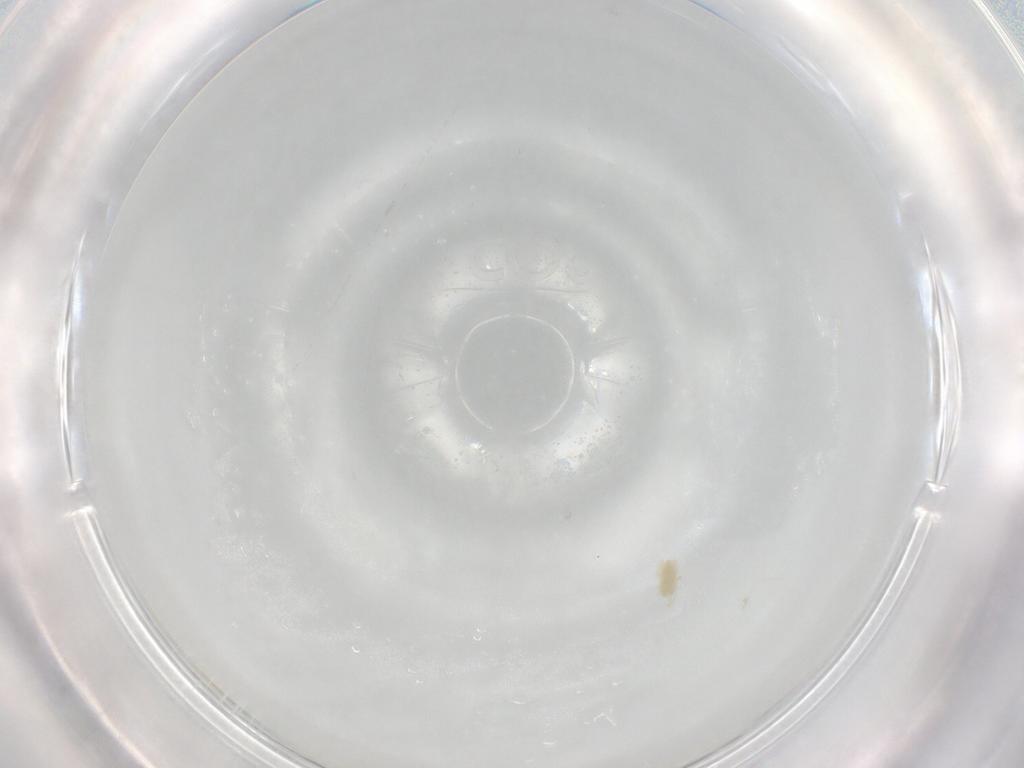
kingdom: Animalia
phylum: Arthropoda
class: Arachnida
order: Trombidiformes
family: Eupodidae
